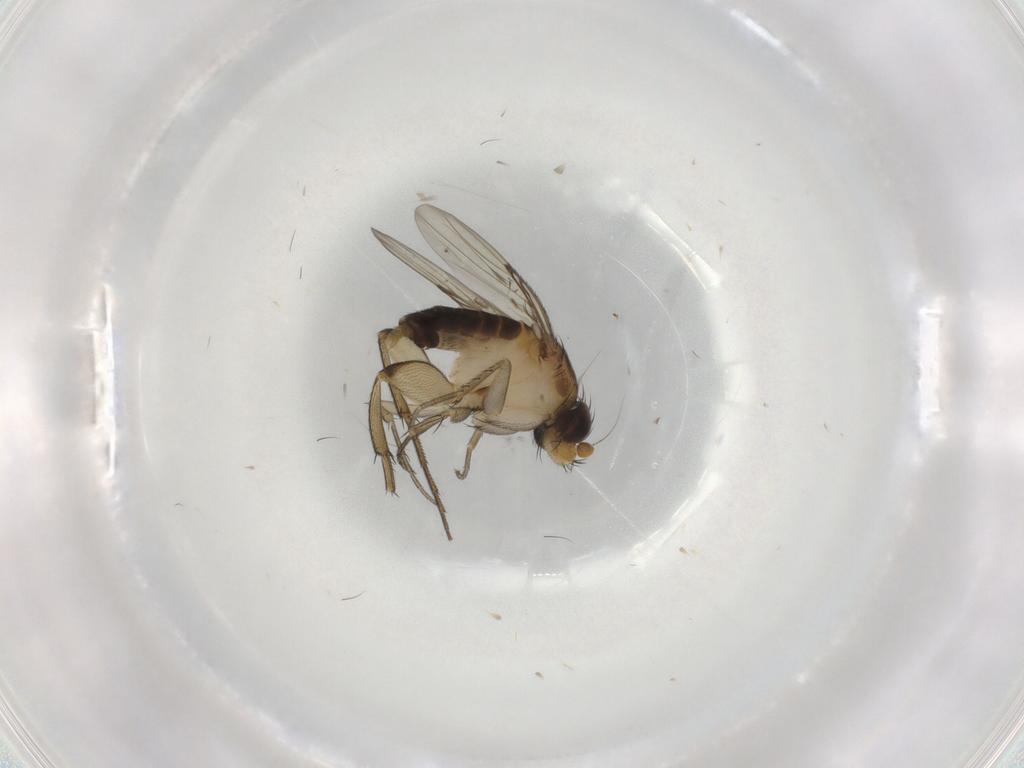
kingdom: Animalia
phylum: Arthropoda
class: Insecta
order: Diptera
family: Phoridae
